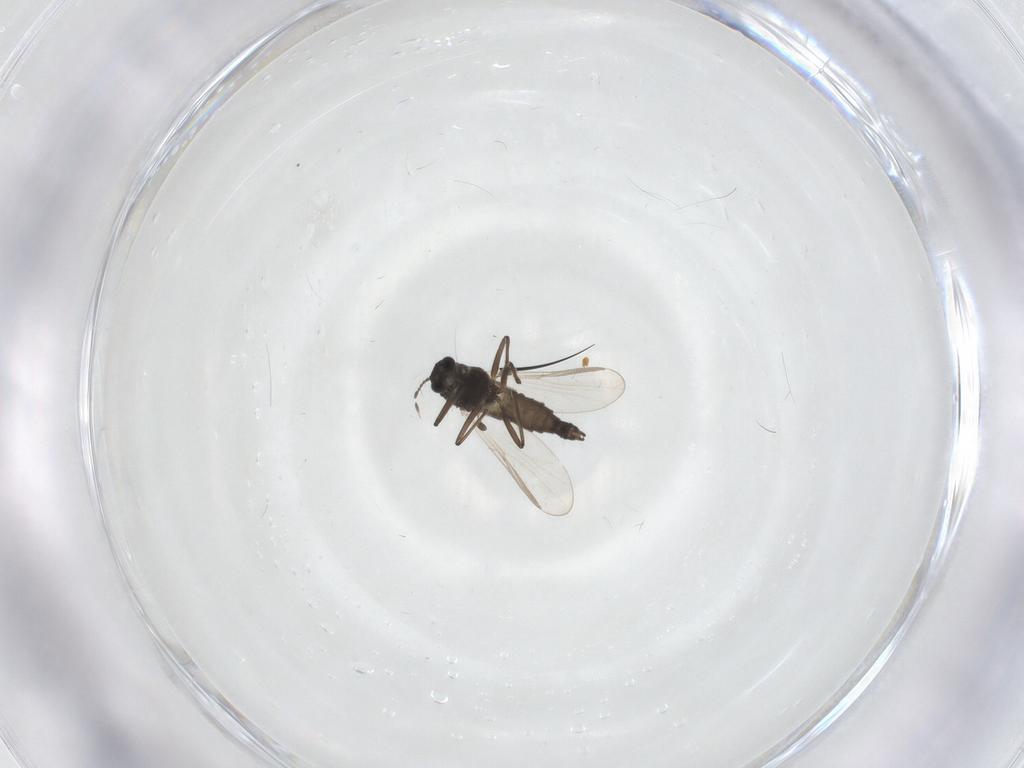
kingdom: Animalia
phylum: Arthropoda
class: Insecta
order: Diptera
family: Chironomidae
